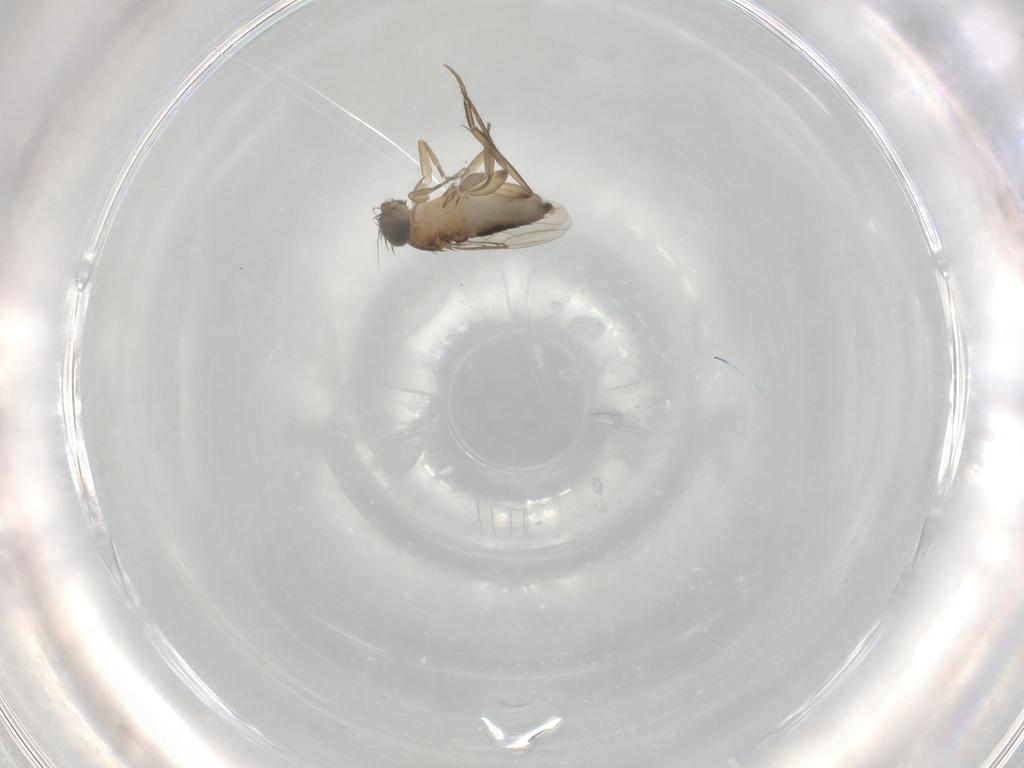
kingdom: Animalia
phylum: Arthropoda
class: Insecta
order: Diptera
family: Phoridae
